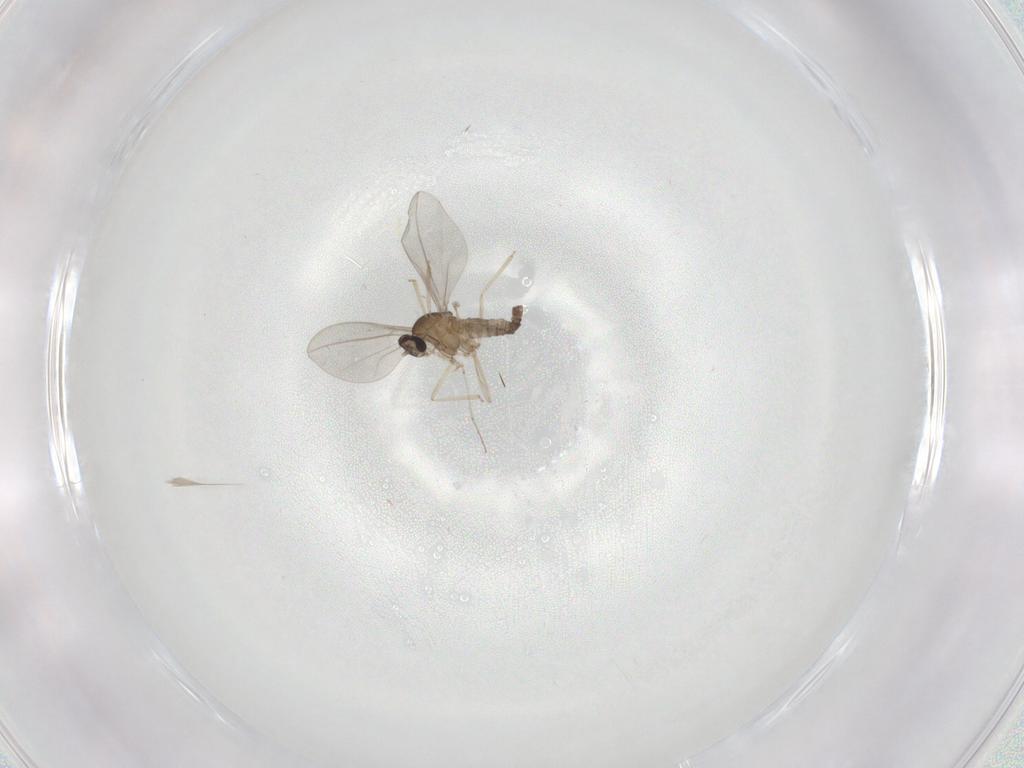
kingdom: Animalia
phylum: Arthropoda
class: Insecta
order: Diptera
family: Cecidomyiidae
